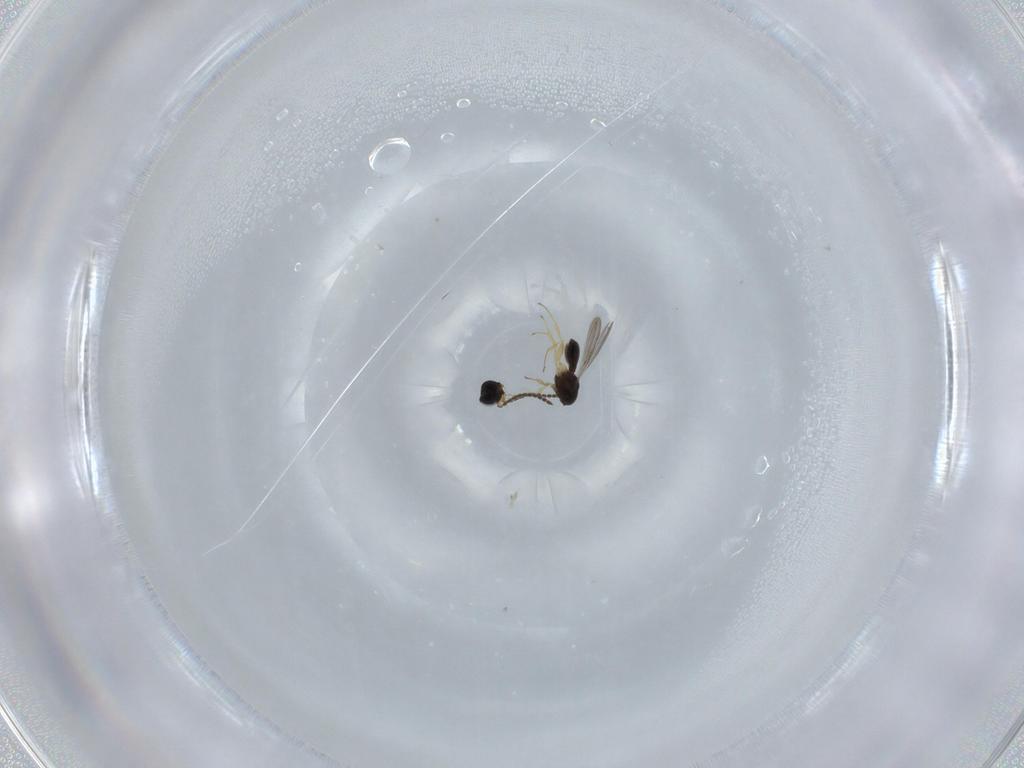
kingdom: Animalia
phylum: Arthropoda
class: Insecta
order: Hymenoptera
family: Scelionidae
